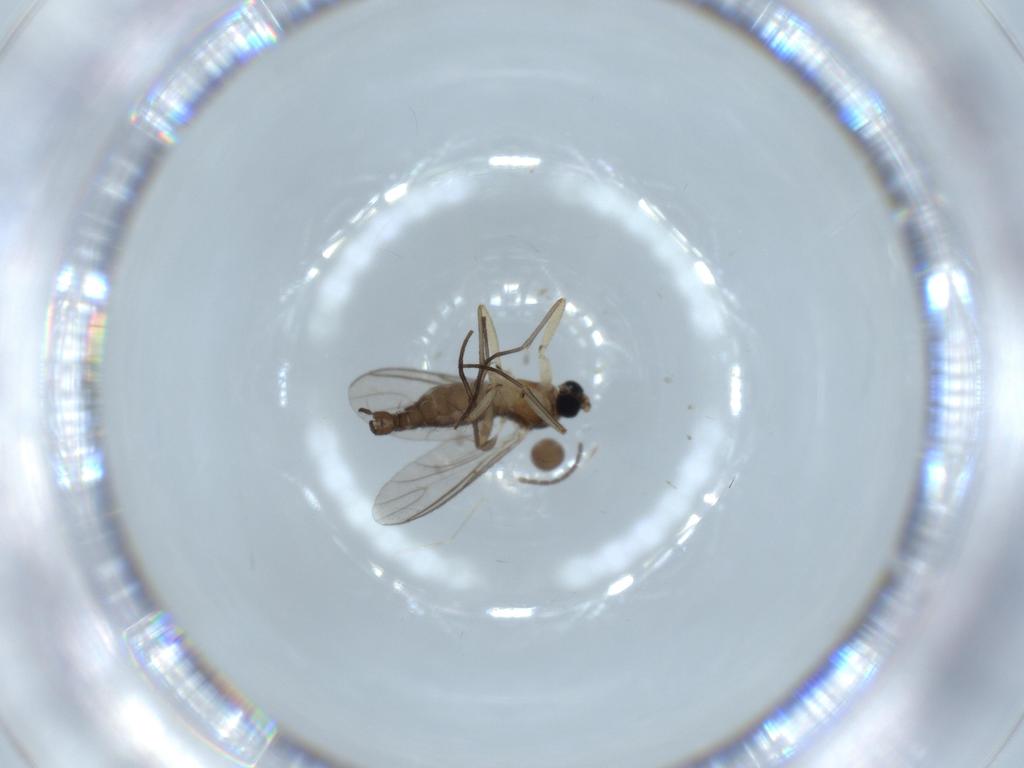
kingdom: Animalia
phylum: Arthropoda
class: Insecta
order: Diptera
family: Sciaridae
